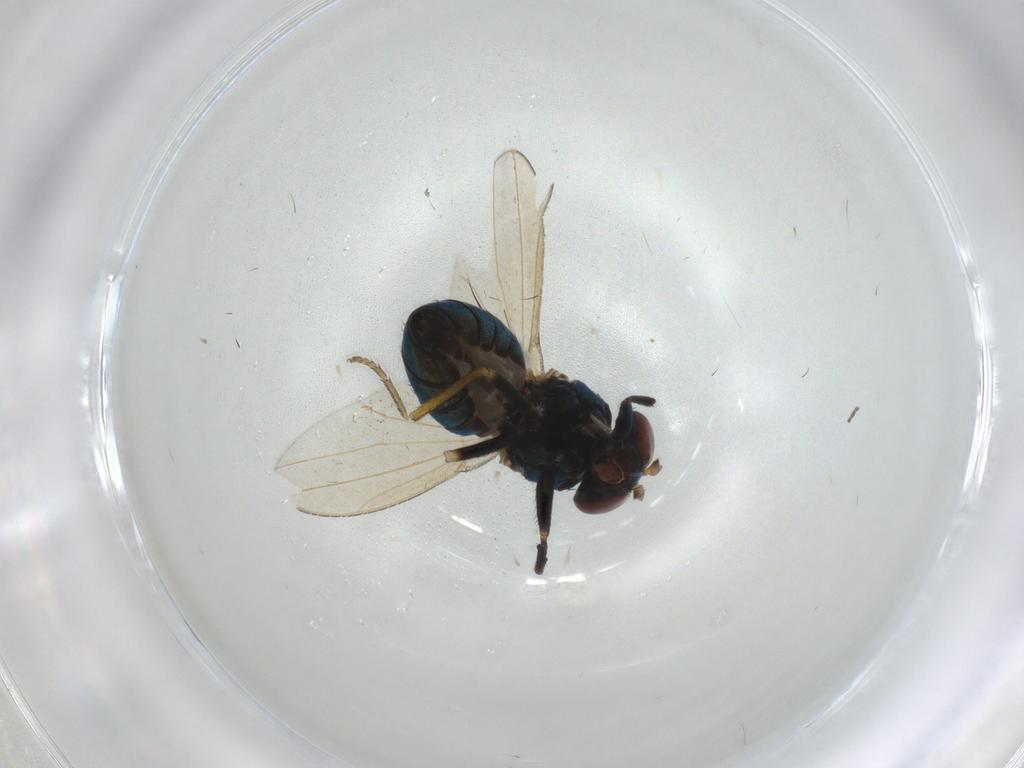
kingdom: Animalia
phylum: Arthropoda
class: Insecta
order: Diptera
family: Ephydridae
